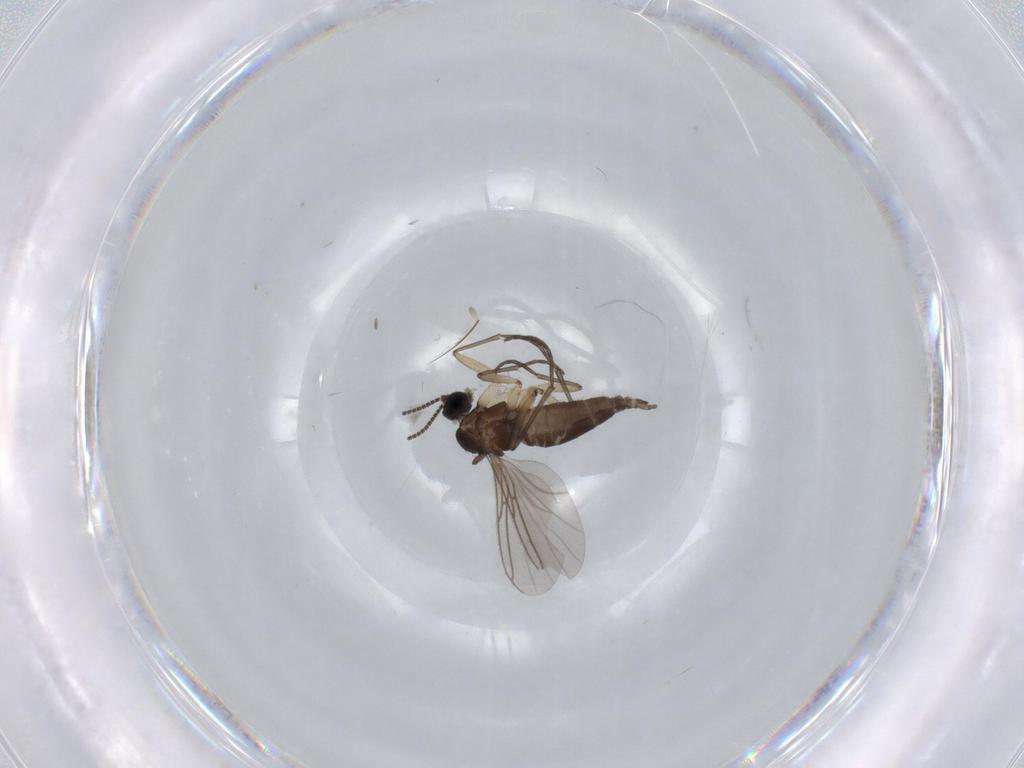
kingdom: Animalia
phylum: Arthropoda
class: Insecta
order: Diptera
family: Sciaridae
